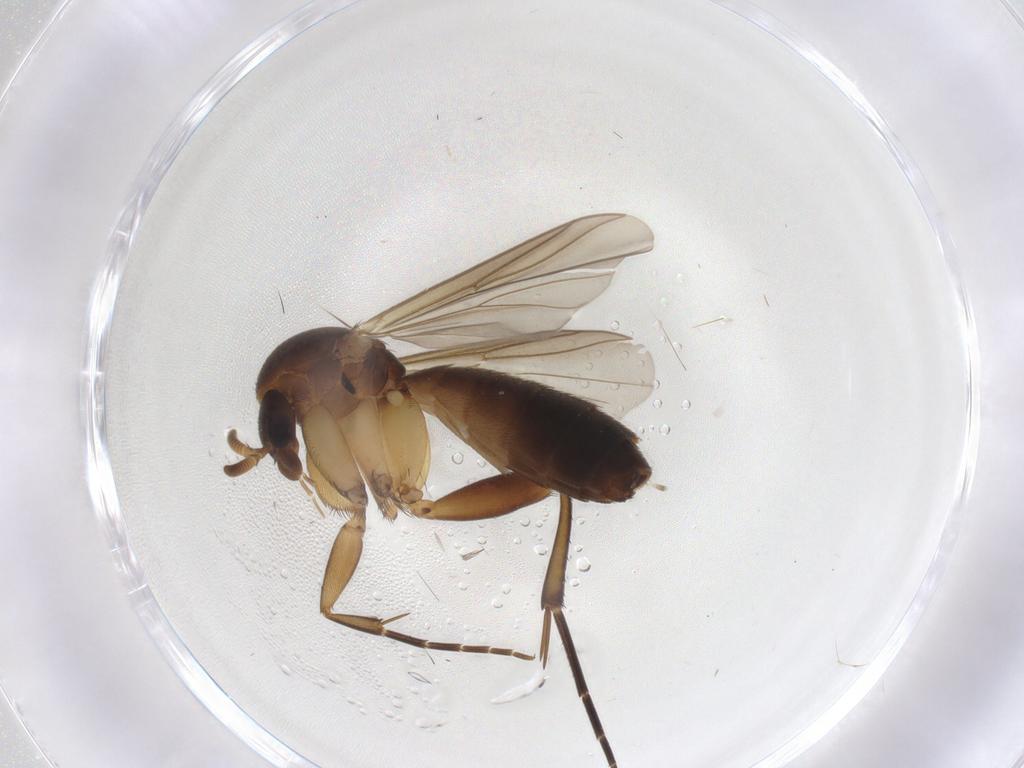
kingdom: Animalia
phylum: Arthropoda
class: Insecta
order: Diptera
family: Mycetophilidae
